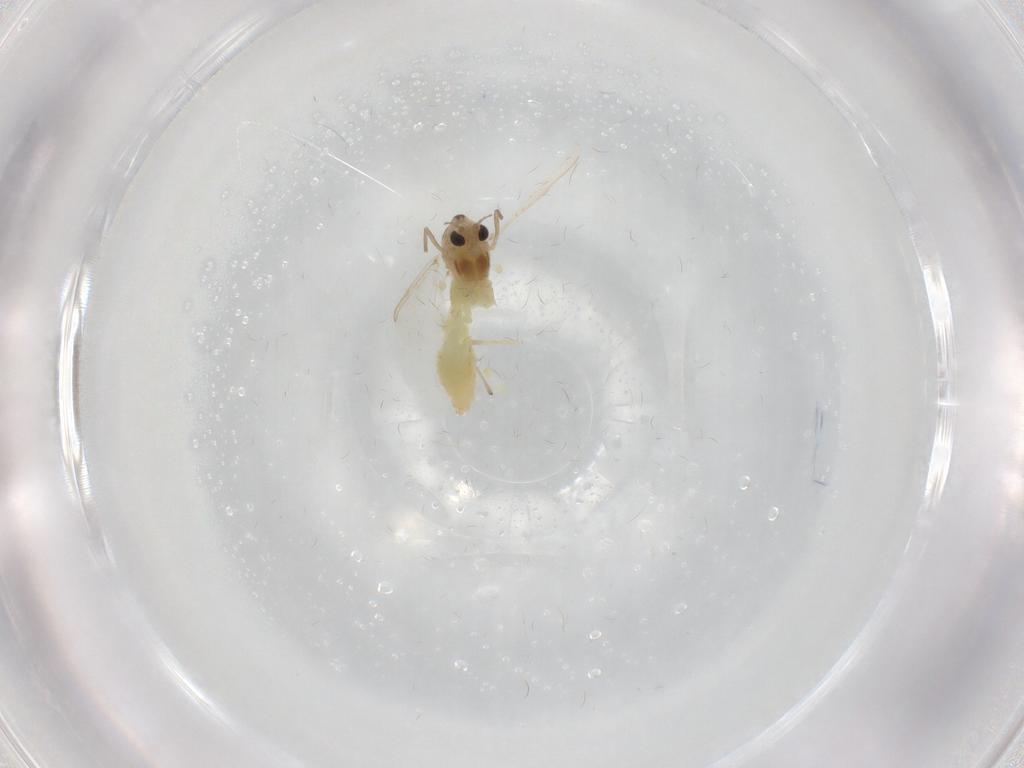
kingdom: Animalia
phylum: Arthropoda
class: Insecta
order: Diptera
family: Chironomidae
